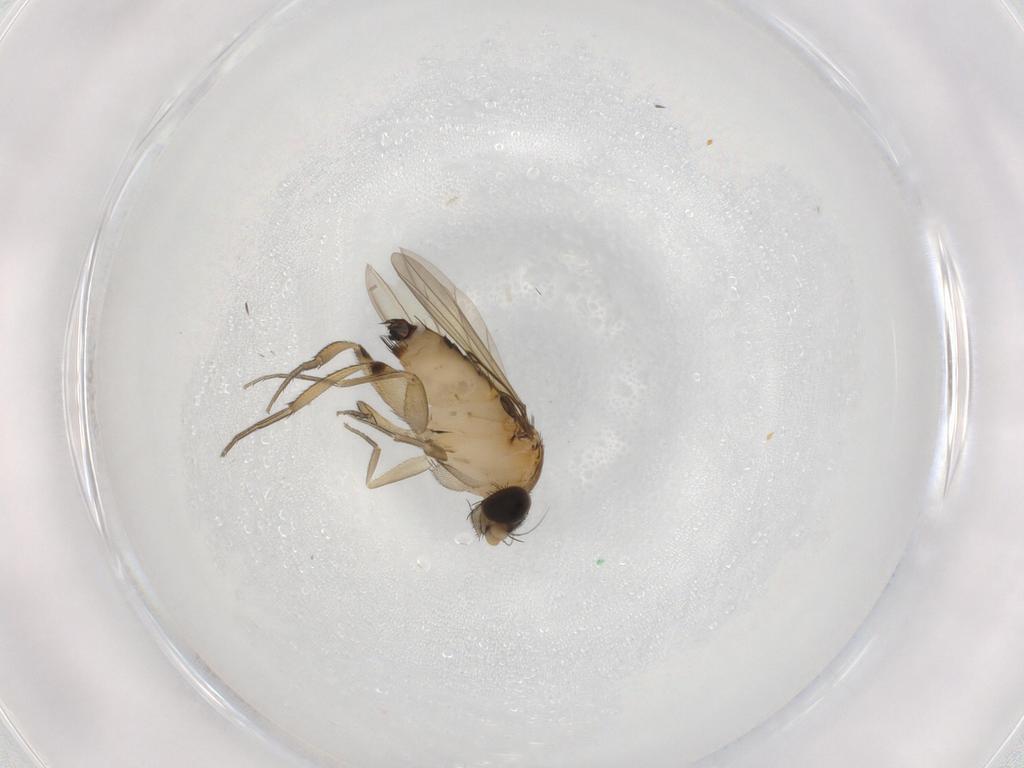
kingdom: Animalia
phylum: Arthropoda
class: Insecta
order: Diptera
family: Phoridae
